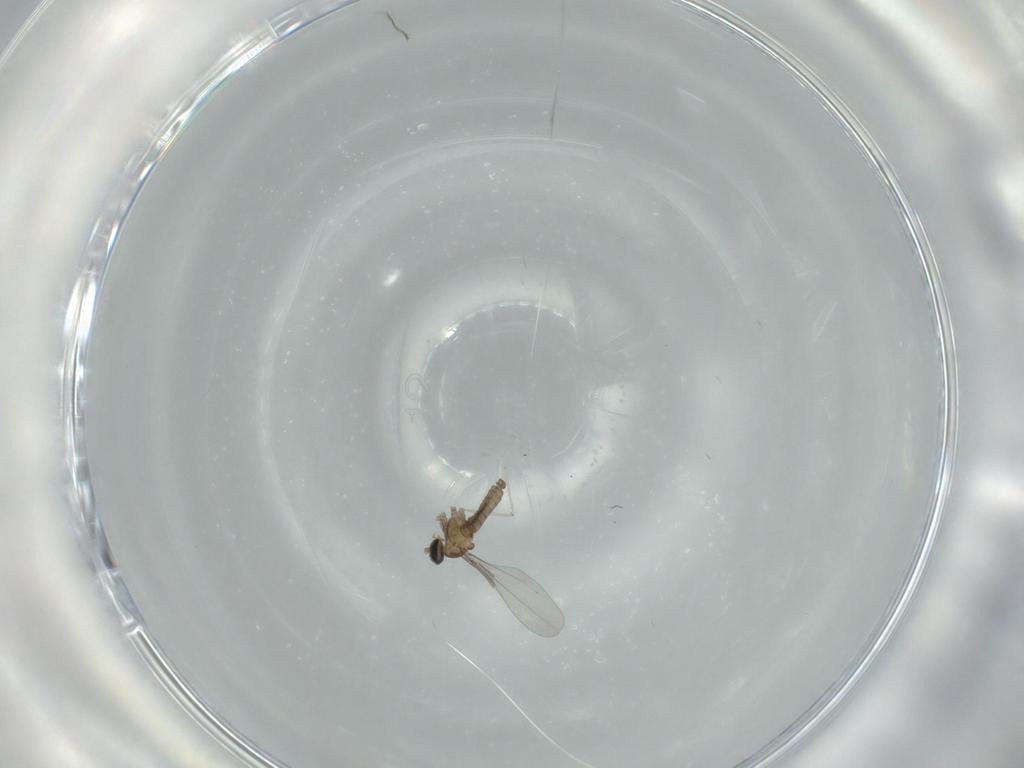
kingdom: Animalia
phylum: Arthropoda
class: Insecta
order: Diptera
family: Cecidomyiidae
